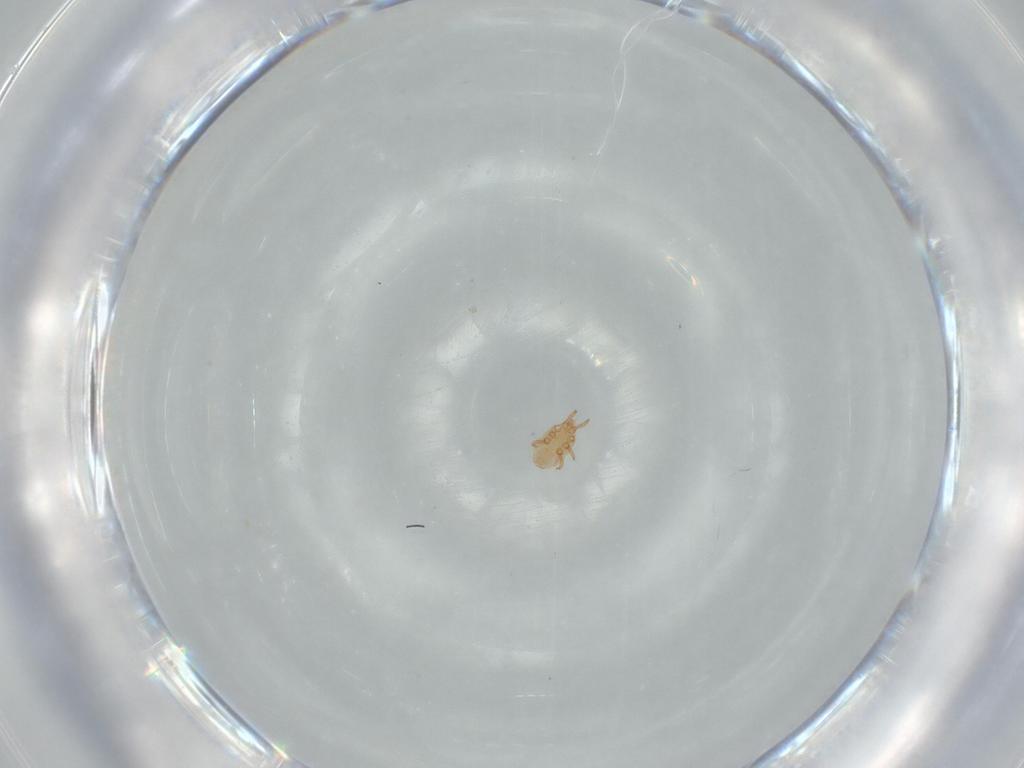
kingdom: Animalia
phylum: Arthropoda
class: Arachnida
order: Mesostigmata
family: Dinychidae
